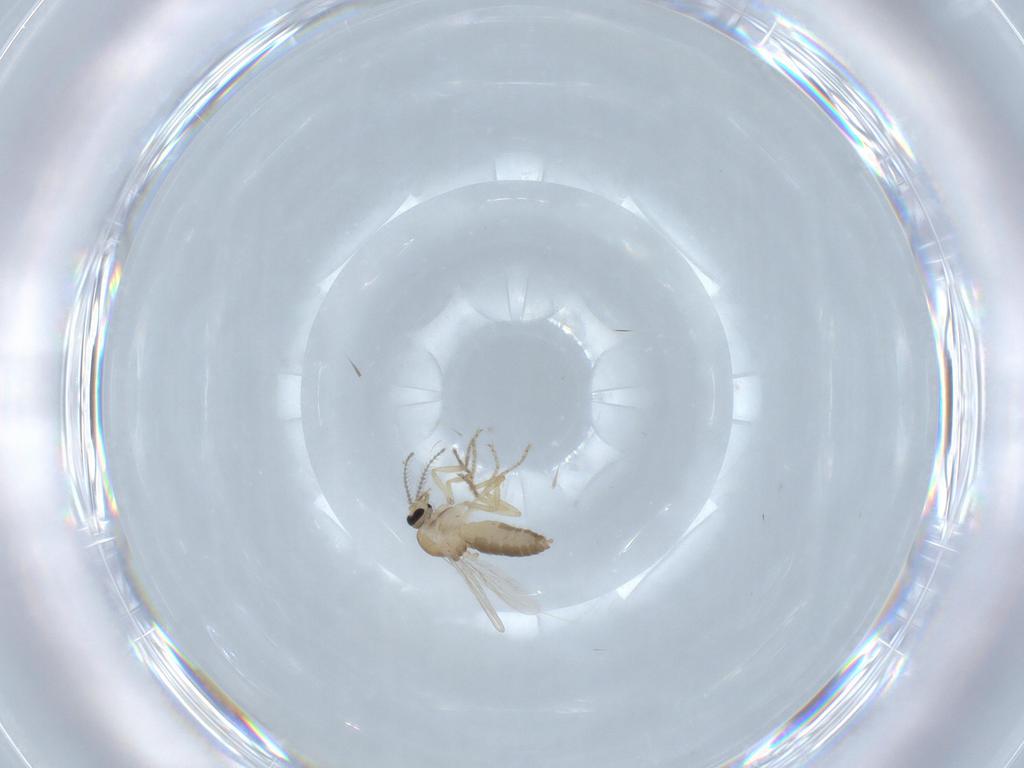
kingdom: Animalia
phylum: Arthropoda
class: Insecta
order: Diptera
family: Ceratopogonidae
